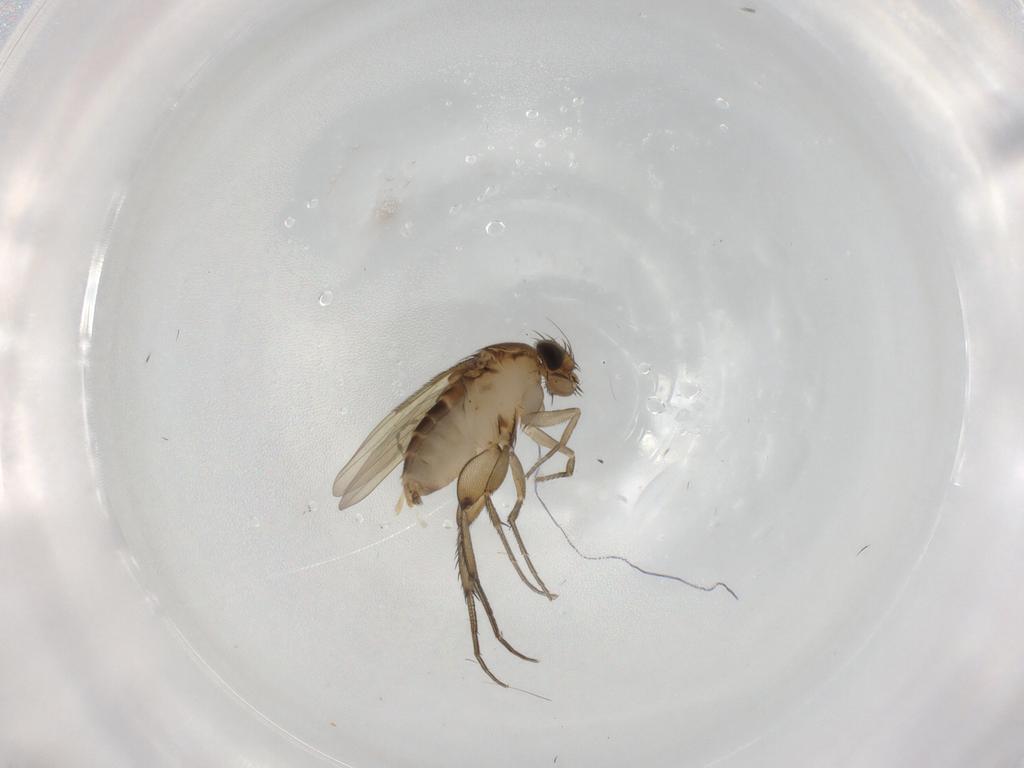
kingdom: Animalia
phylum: Arthropoda
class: Insecta
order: Diptera
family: Phoridae
